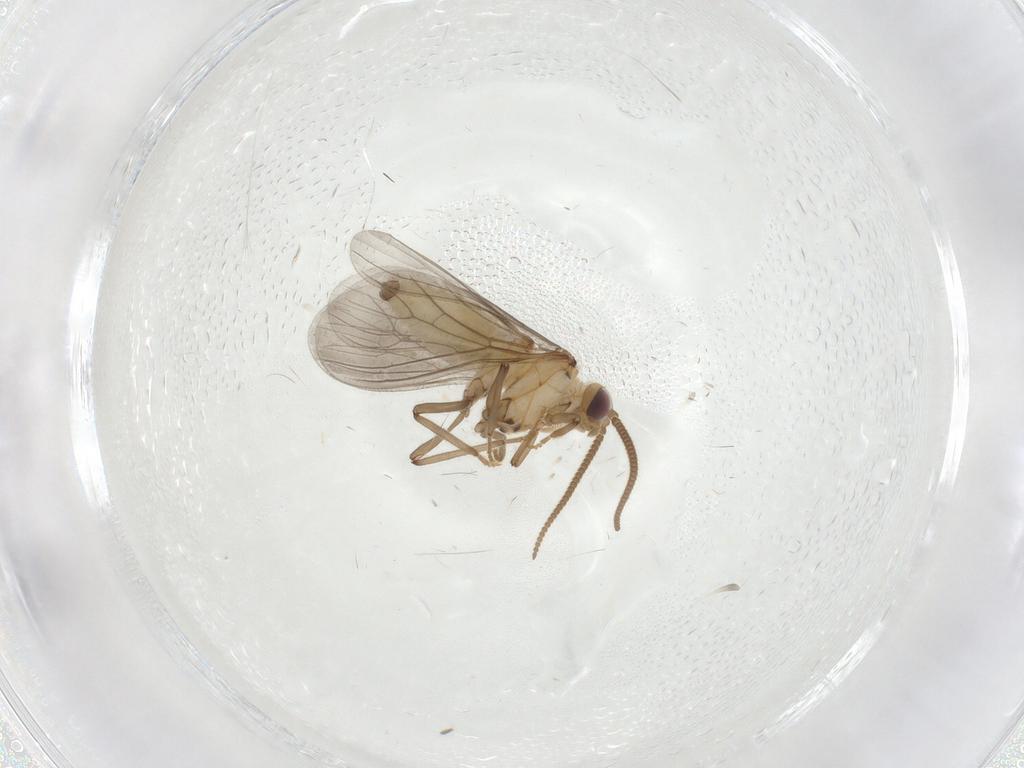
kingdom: Animalia
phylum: Arthropoda
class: Insecta
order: Neuroptera
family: Coniopterygidae
